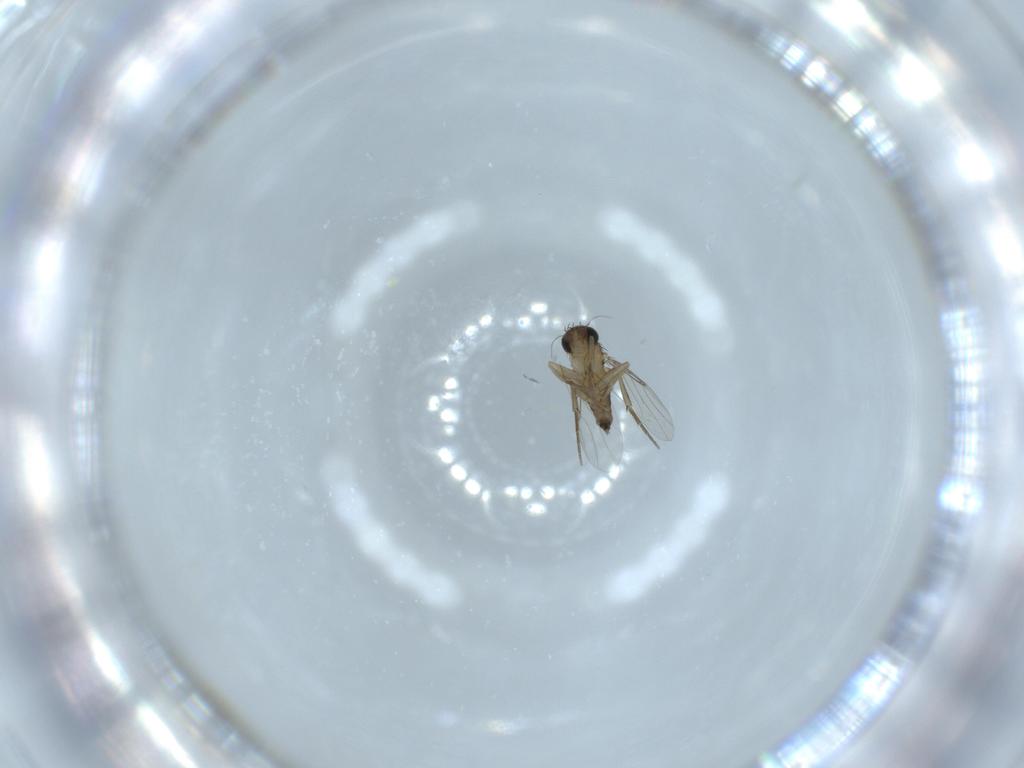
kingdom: Animalia
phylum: Arthropoda
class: Insecta
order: Diptera
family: Phoridae
